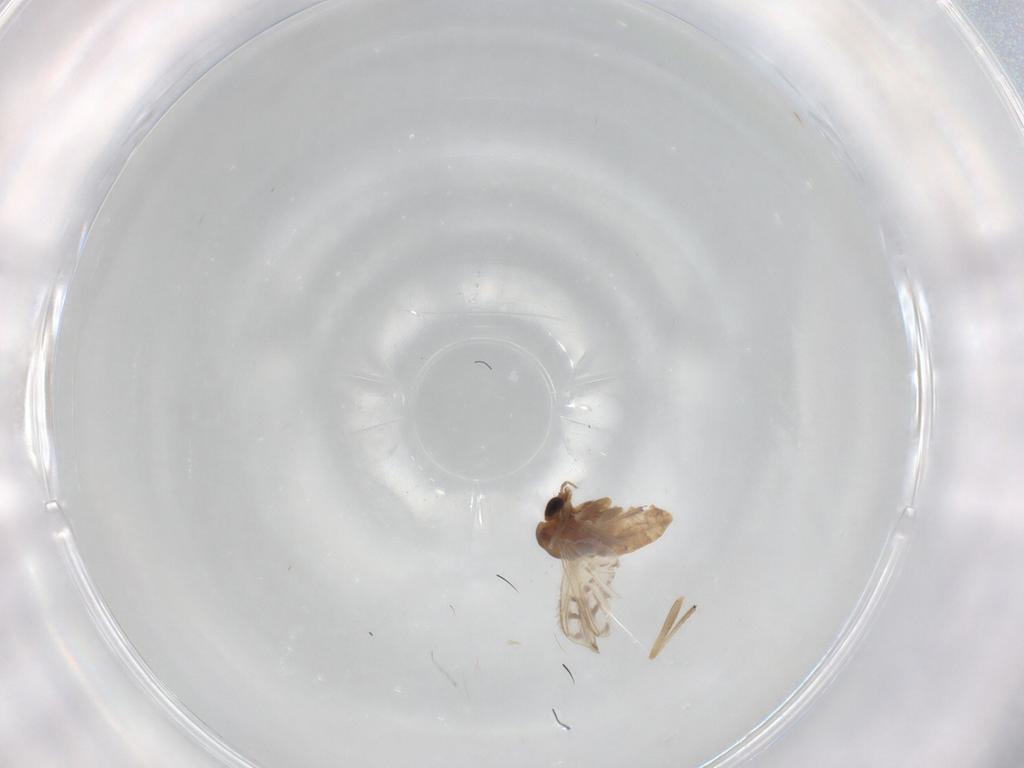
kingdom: Animalia
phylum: Arthropoda
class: Insecta
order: Diptera
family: Chironomidae
